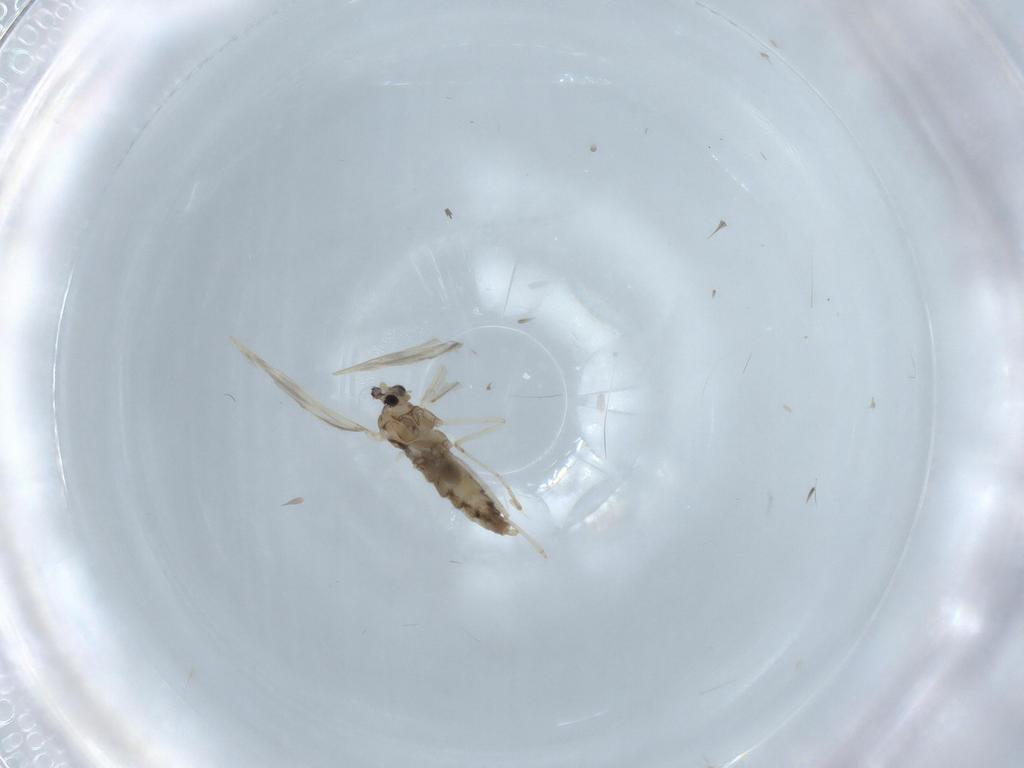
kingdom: Animalia
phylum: Arthropoda
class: Insecta
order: Diptera
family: Cecidomyiidae
